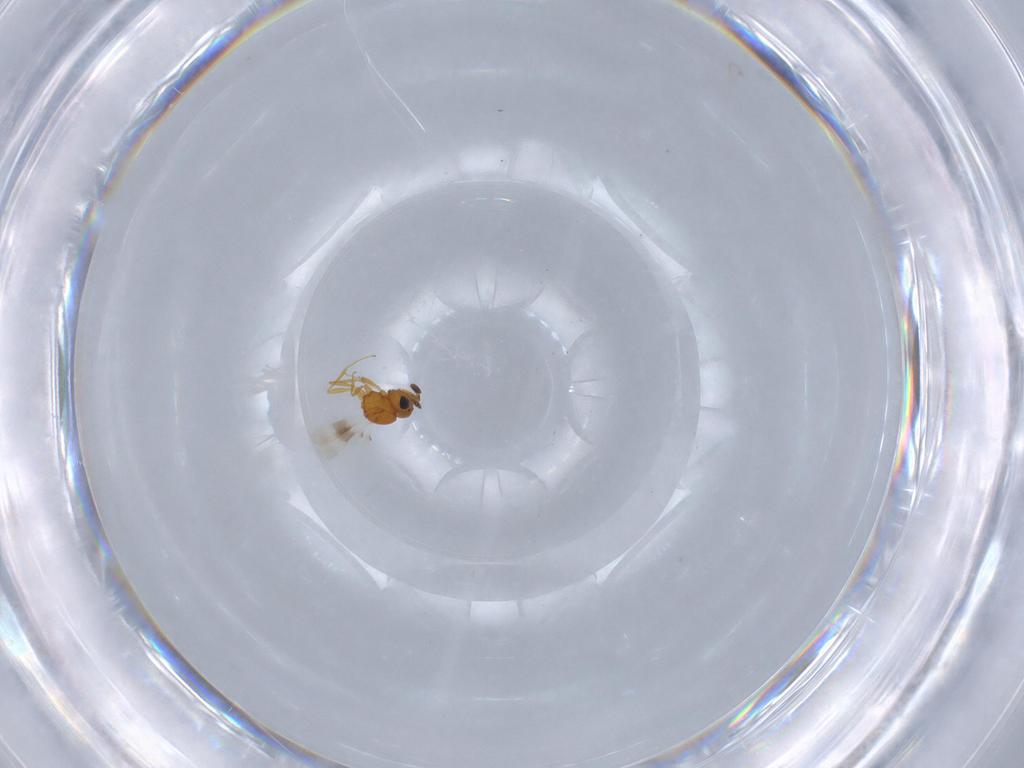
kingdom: Animalia
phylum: Arthropoda
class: Insecta
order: Hymenoptera
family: Scelionidae
